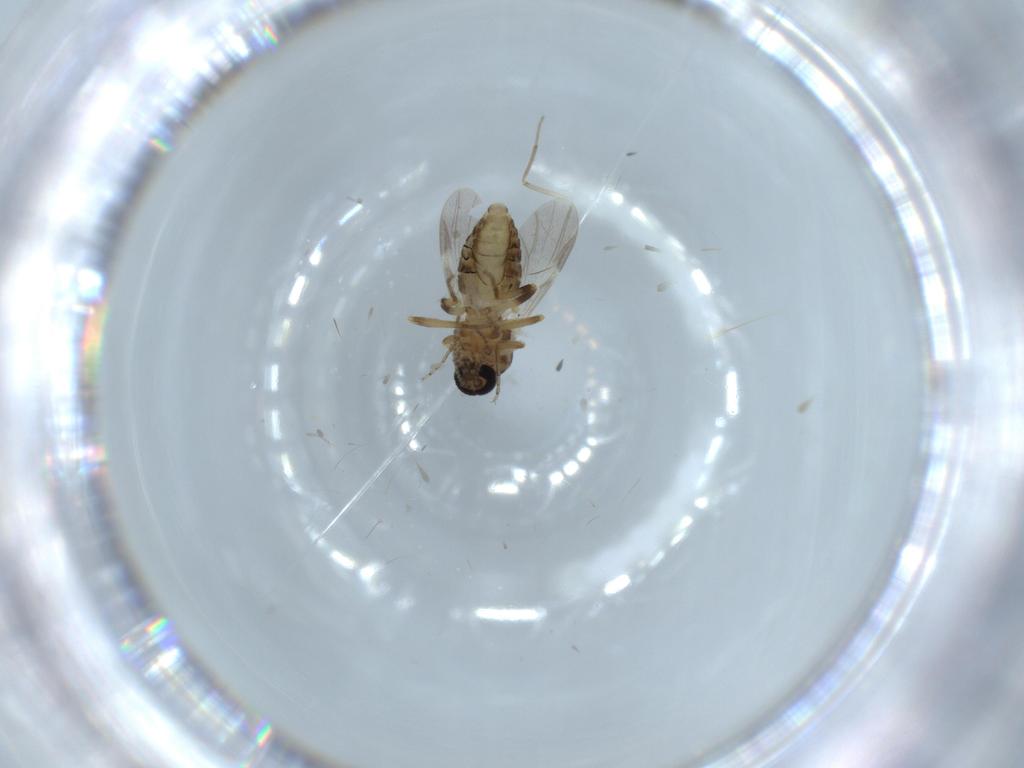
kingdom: Animalia
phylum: Arthropoda
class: Insecta
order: Diptera
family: Ceratopogonidae
